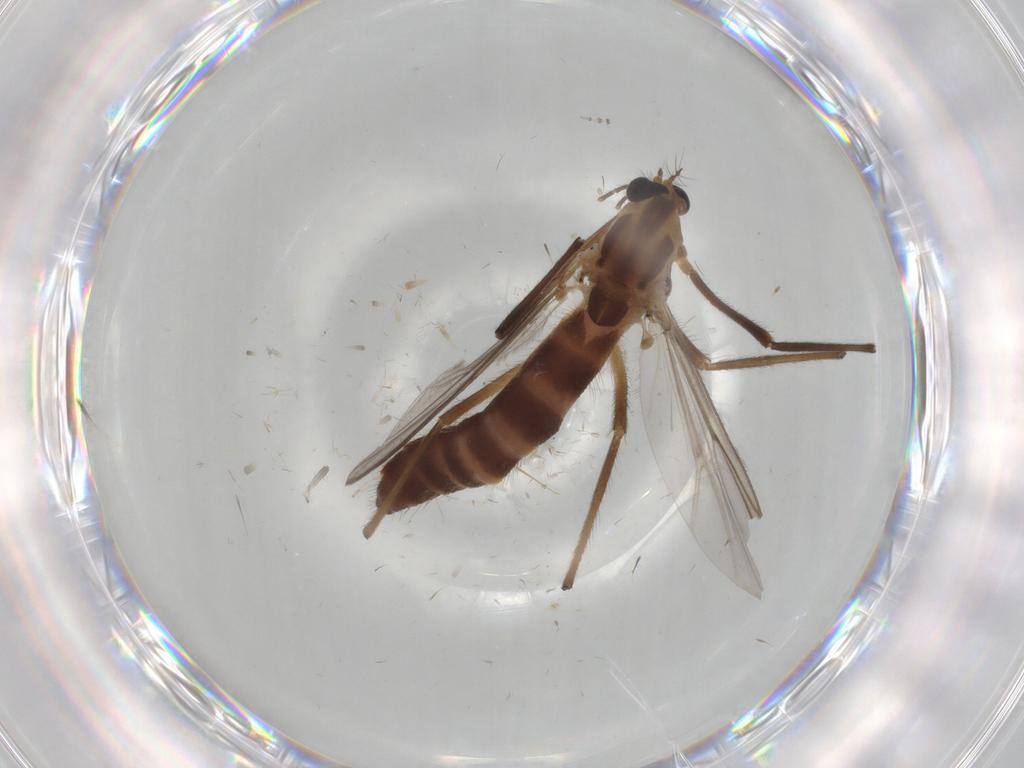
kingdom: Animalia
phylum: Arthropoda
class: Insecta
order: Diptera
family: Chironomidae
